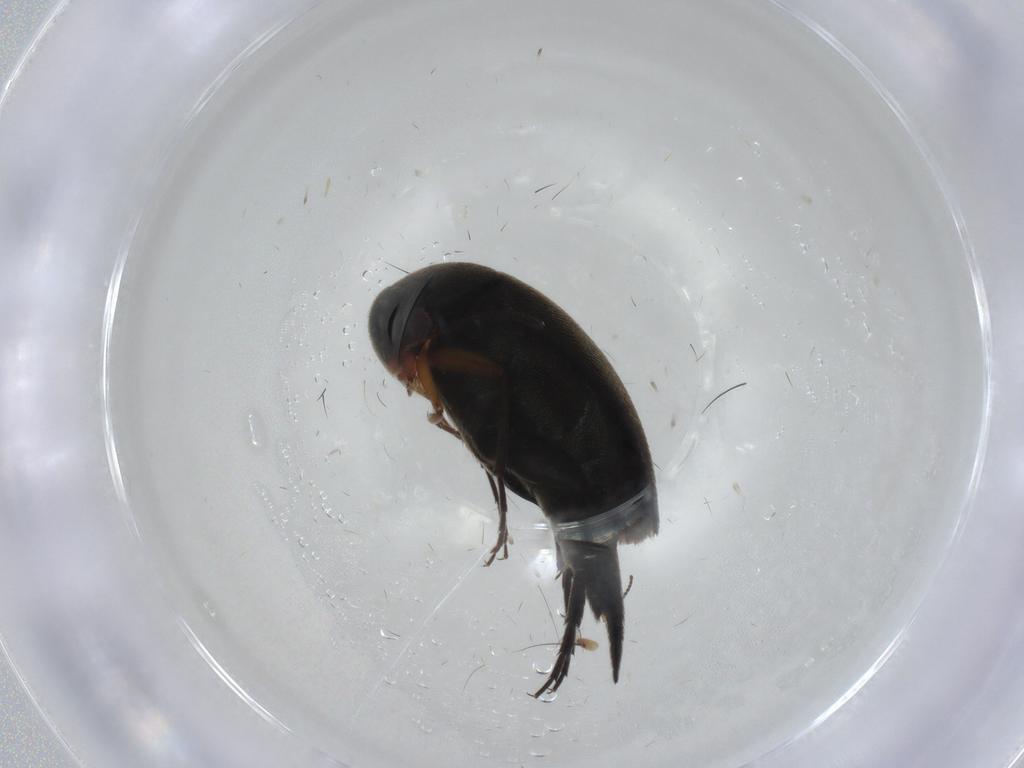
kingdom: Animalia
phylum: Arthropoda
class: Insecta
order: Coleoptera
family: Mordellidae
